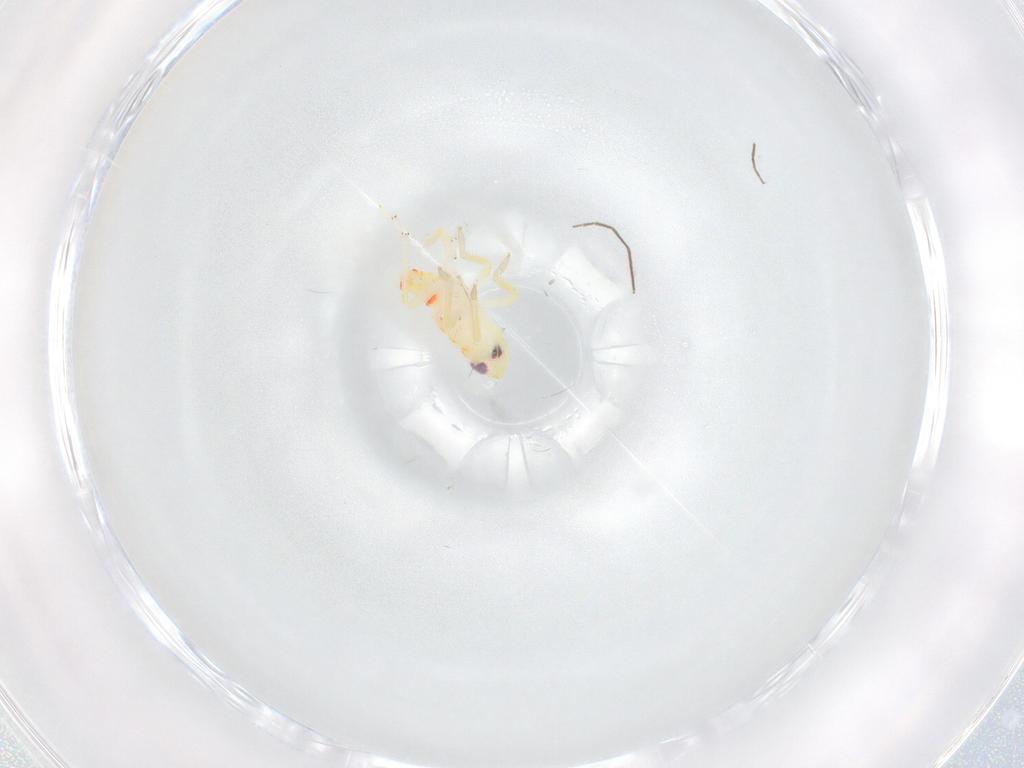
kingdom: Animalia
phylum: Arthropoda
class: Insecta
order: Hemiptera
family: Tropiduchidae
